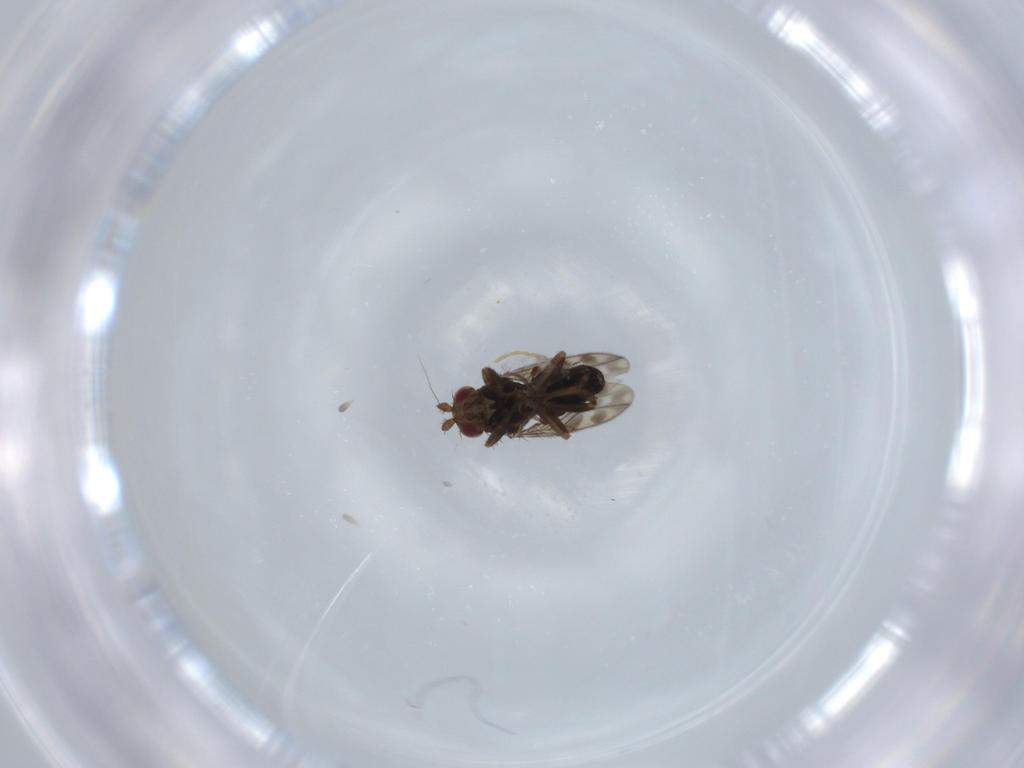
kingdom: Animalia
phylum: Arthropoda
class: Insecta
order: Diptera
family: Sphaeroceridae
